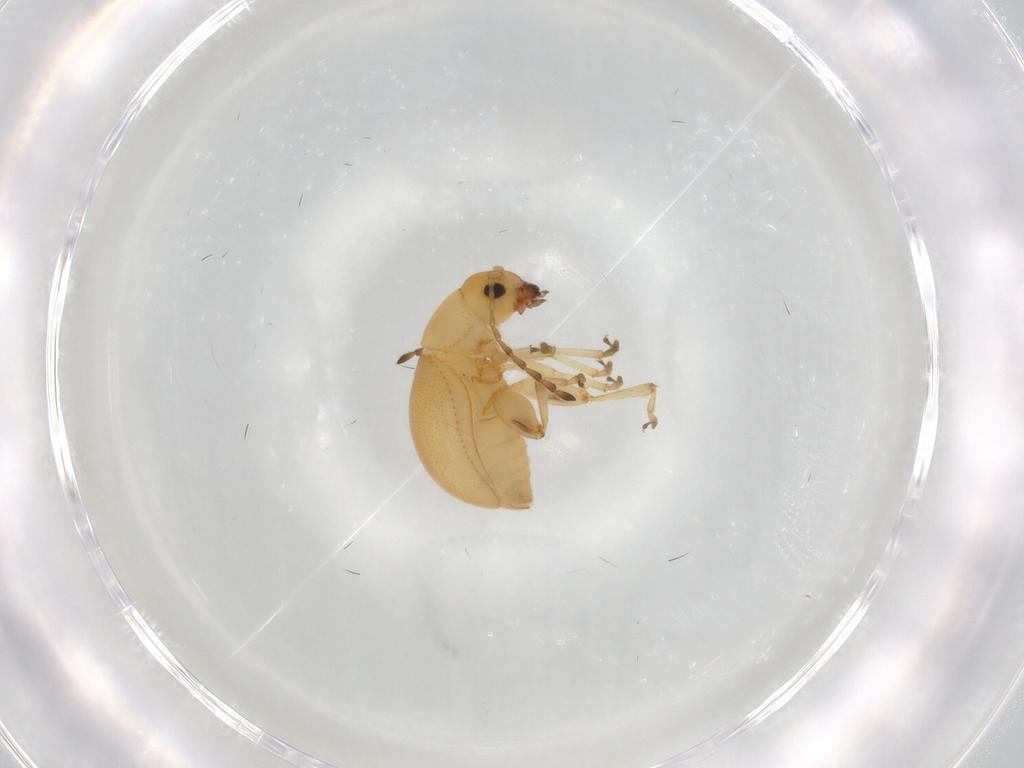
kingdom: Animalia
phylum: Arthropoda
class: Insecta
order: Coleoptera
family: Chrysomelidae
